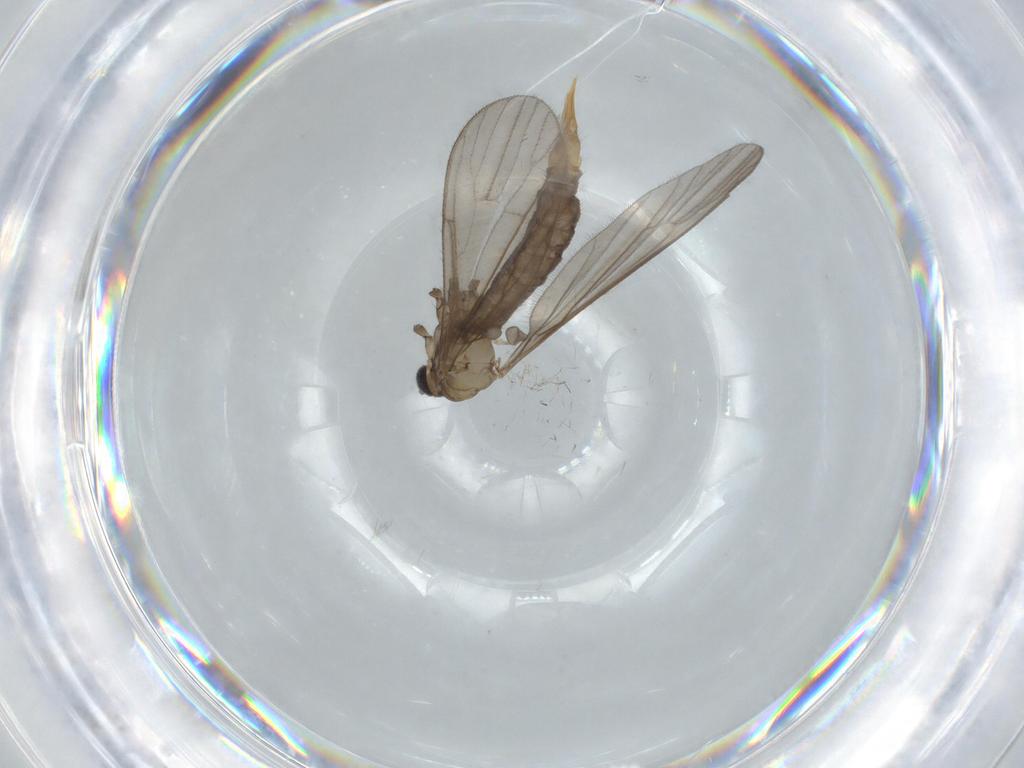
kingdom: Animalia
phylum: Arthropoda
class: Insecta
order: Diptera
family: Limoniidae
